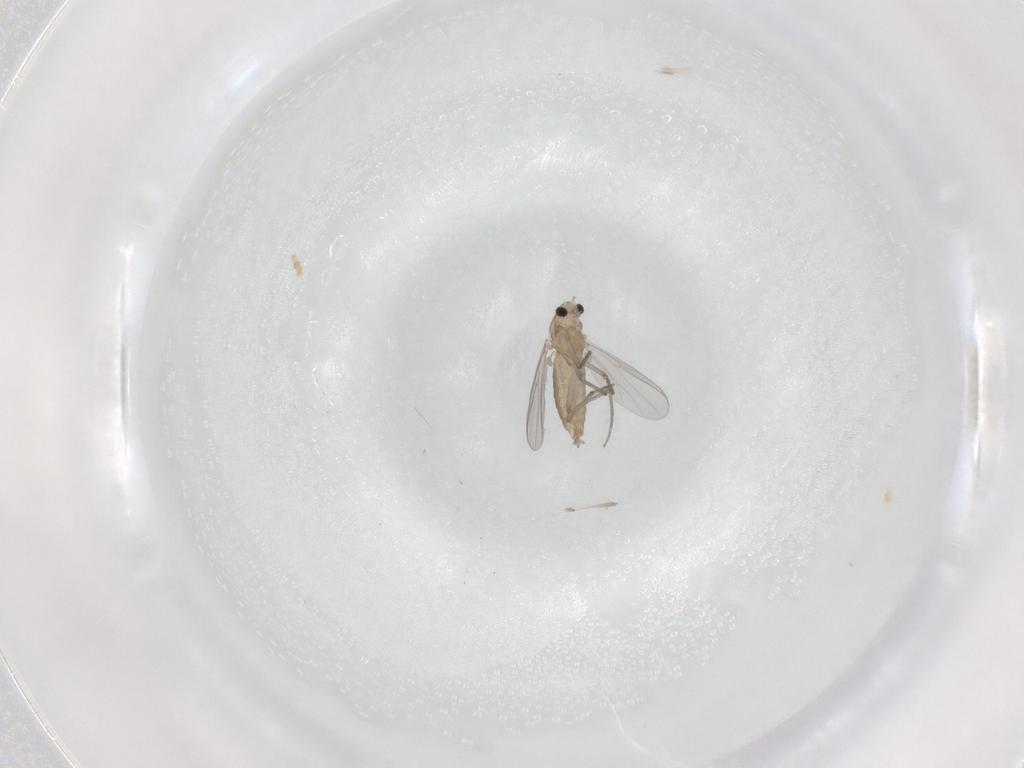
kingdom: Animalia
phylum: Arthropoda
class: Insecta
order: Diptera
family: Chironomidae
